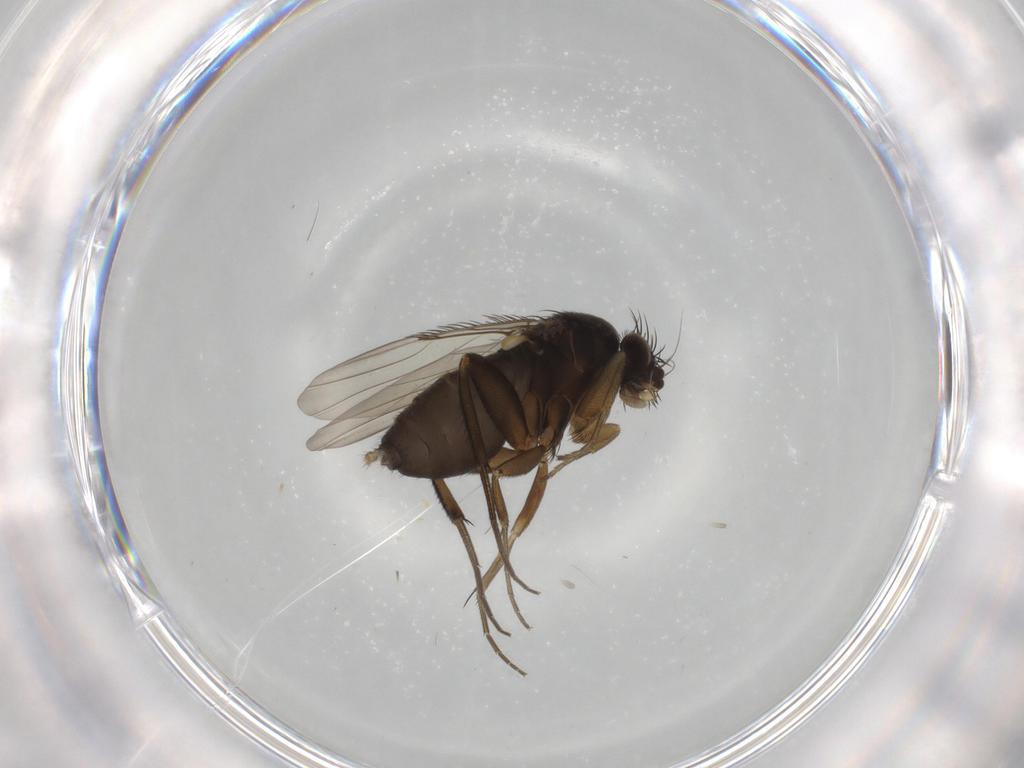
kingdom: Animalia
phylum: Arthropoda
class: Insecta
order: Diptera
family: Phoridae
